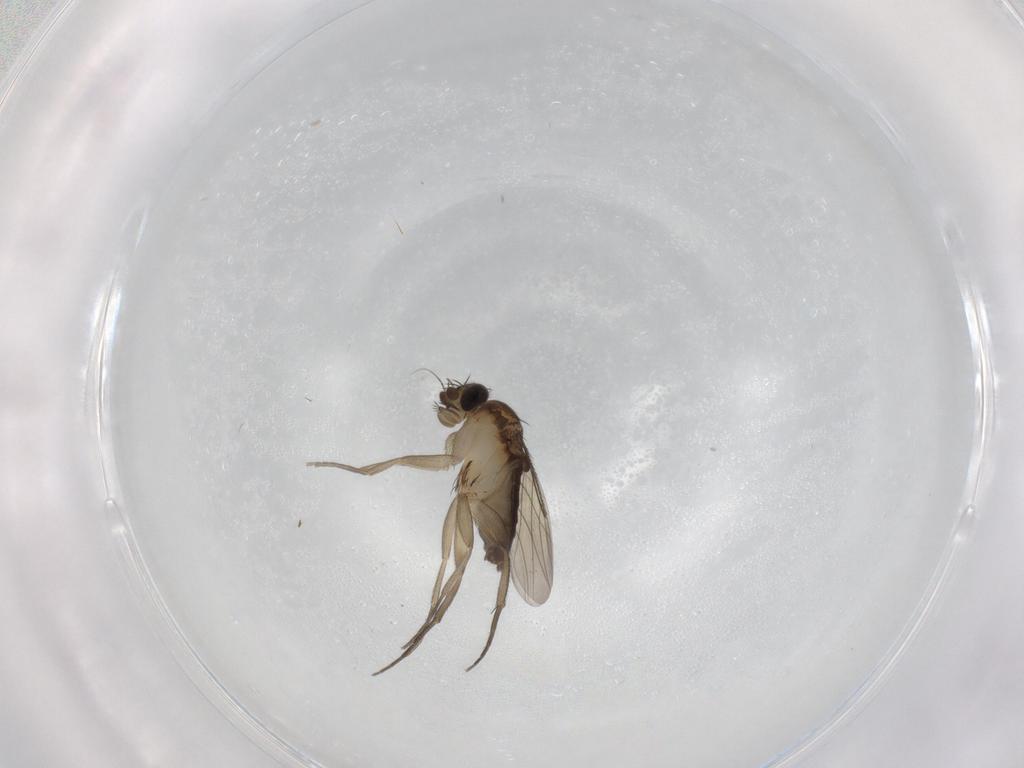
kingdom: Animalia
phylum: Arthropoda
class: Insecta
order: Diptera
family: Phoridae
